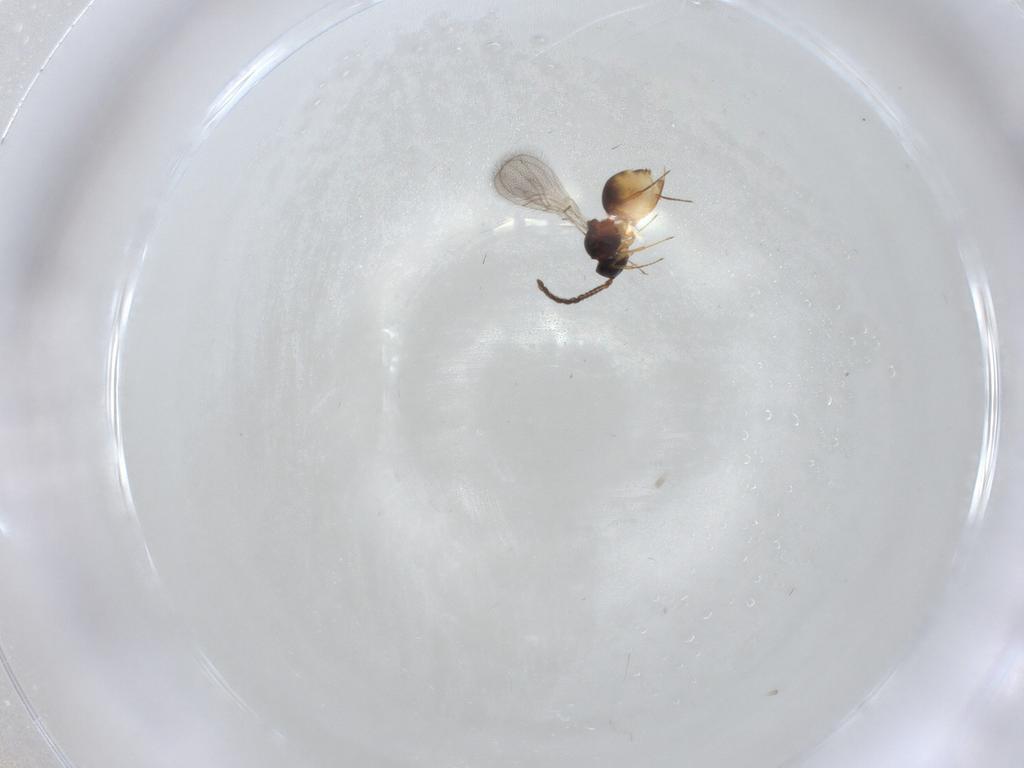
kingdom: Animalia
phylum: Arthropoda
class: Insecta
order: Hymenoptera
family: Figitidae
